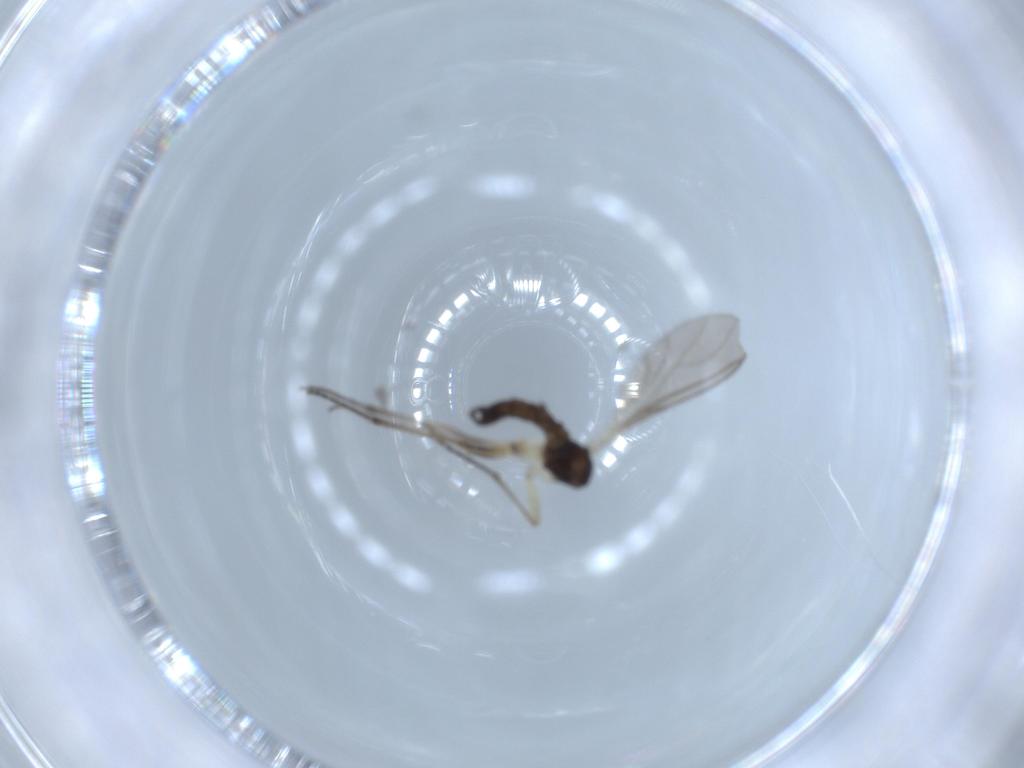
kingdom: Animalia
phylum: Arthropoda
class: Insecta
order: Diptera
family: Sciaridae
